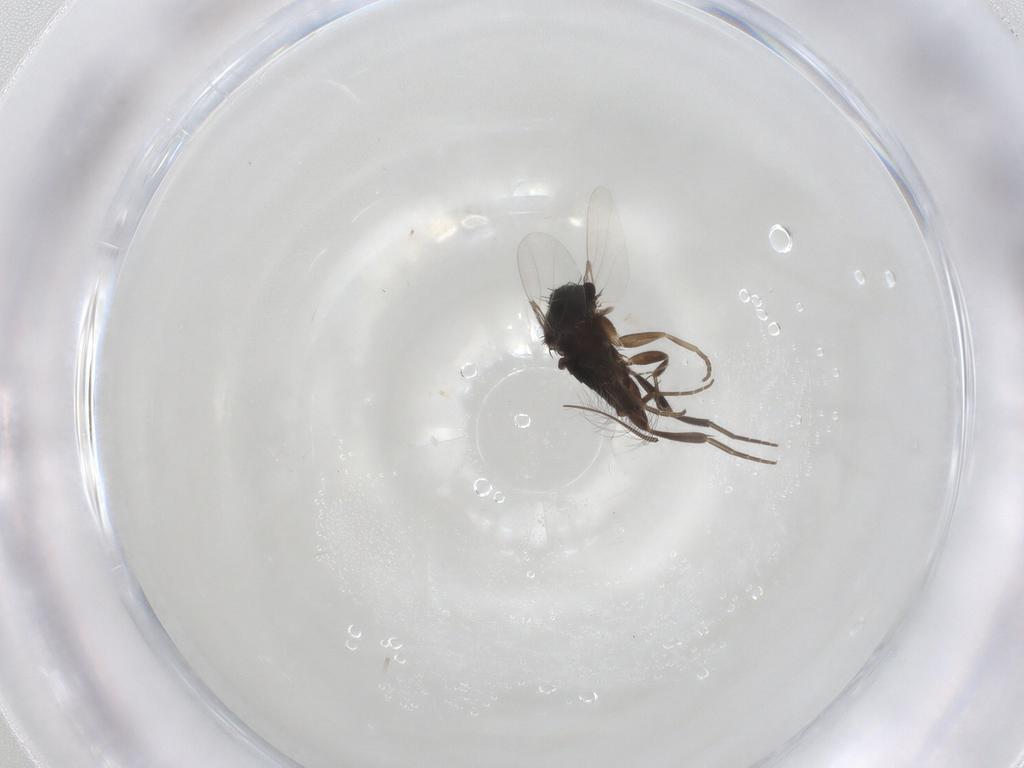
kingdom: Animalia
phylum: Arthropoda
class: Insecta
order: Diptera
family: Phoridae
